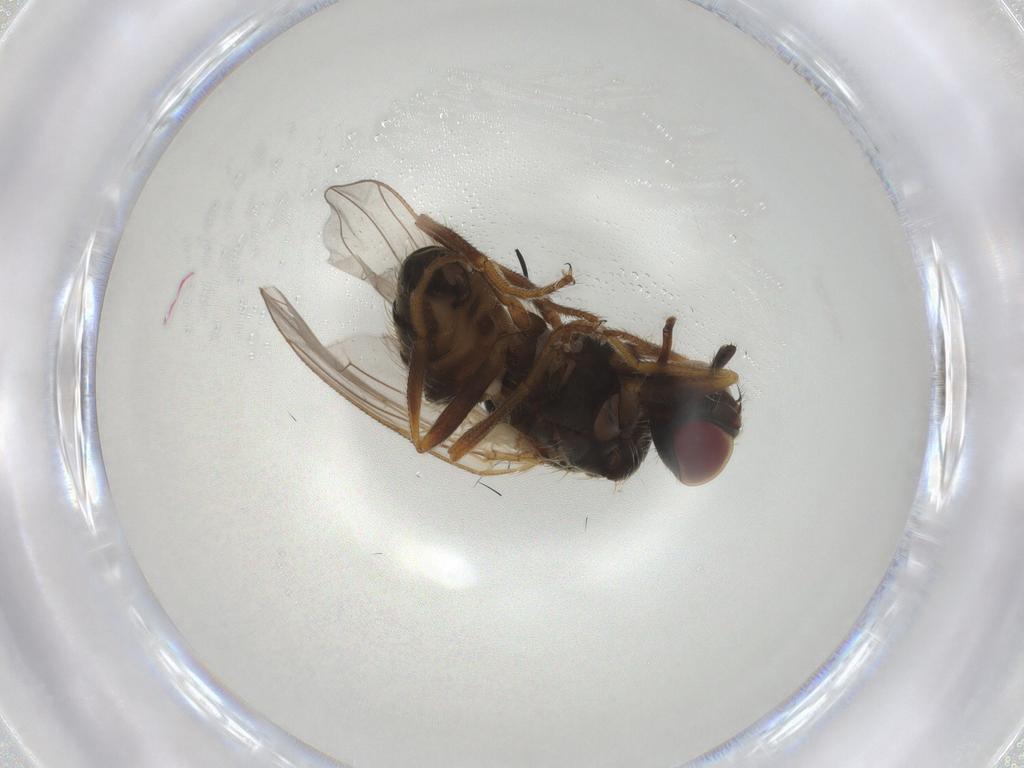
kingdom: Animalia
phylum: Arthropoda
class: Insecta
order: Diptera
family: Muscidae
